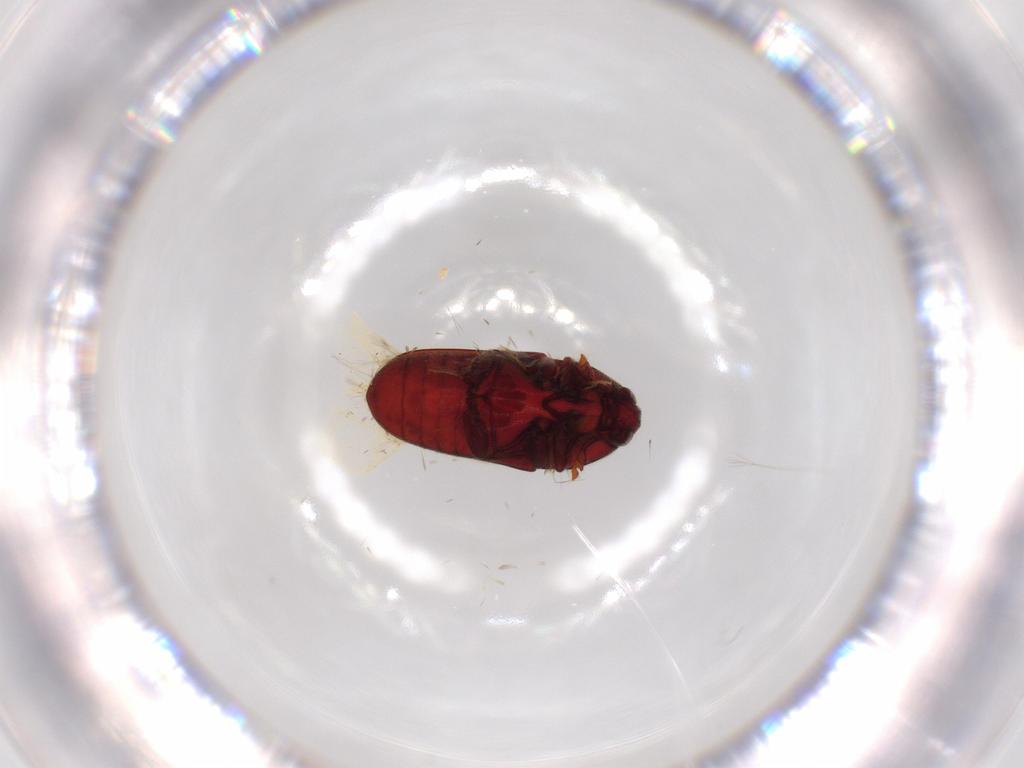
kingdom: Animalia
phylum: Arthropoda
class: Insecta
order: Coleoptera
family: Throscidae
